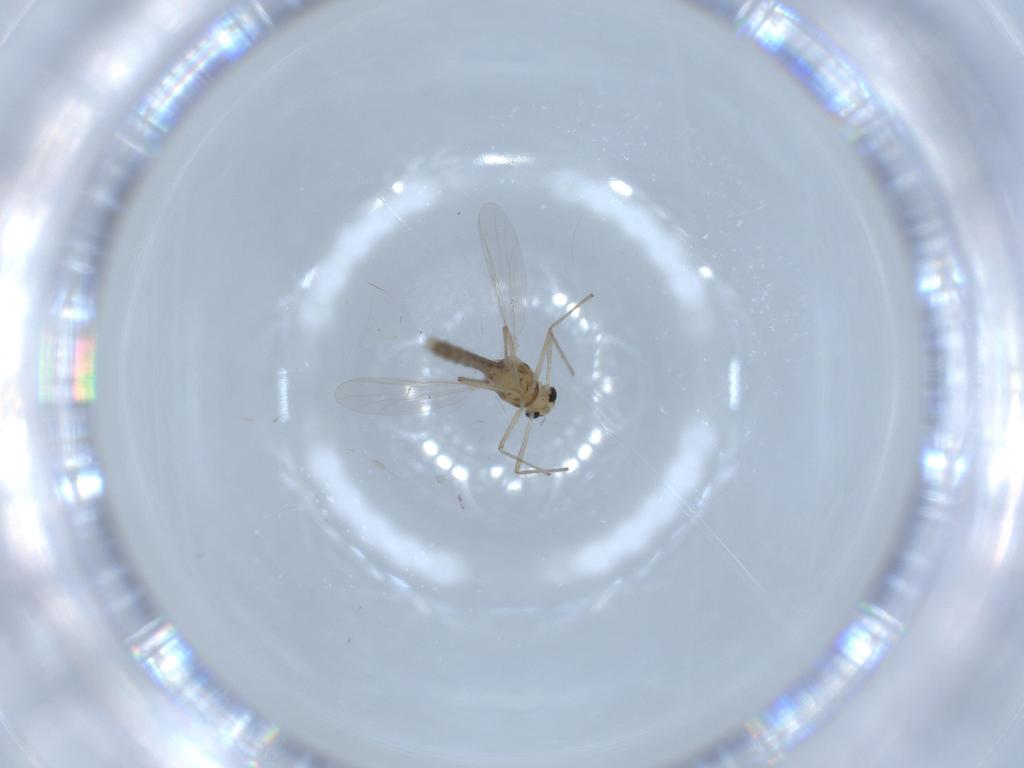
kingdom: Animalia
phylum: Arthropoda
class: Insecta
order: Diptera
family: Chironomidae
